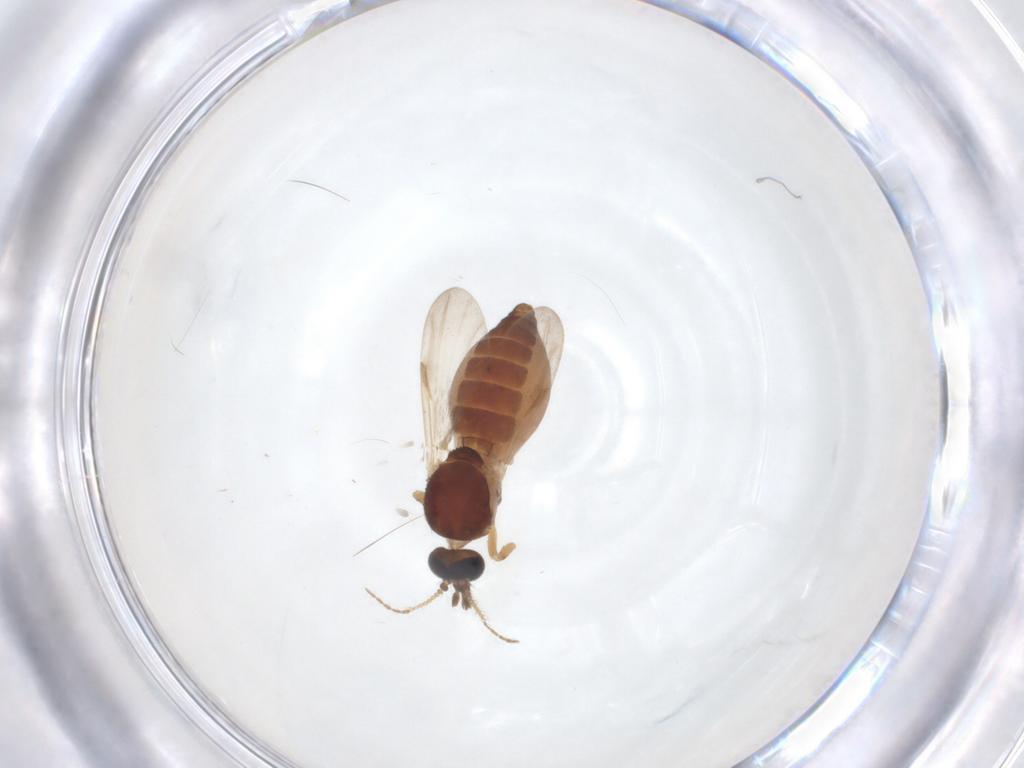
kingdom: Animalia
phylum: Arthropoda
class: Insecta
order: Diptera
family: Ceratopogonidae
